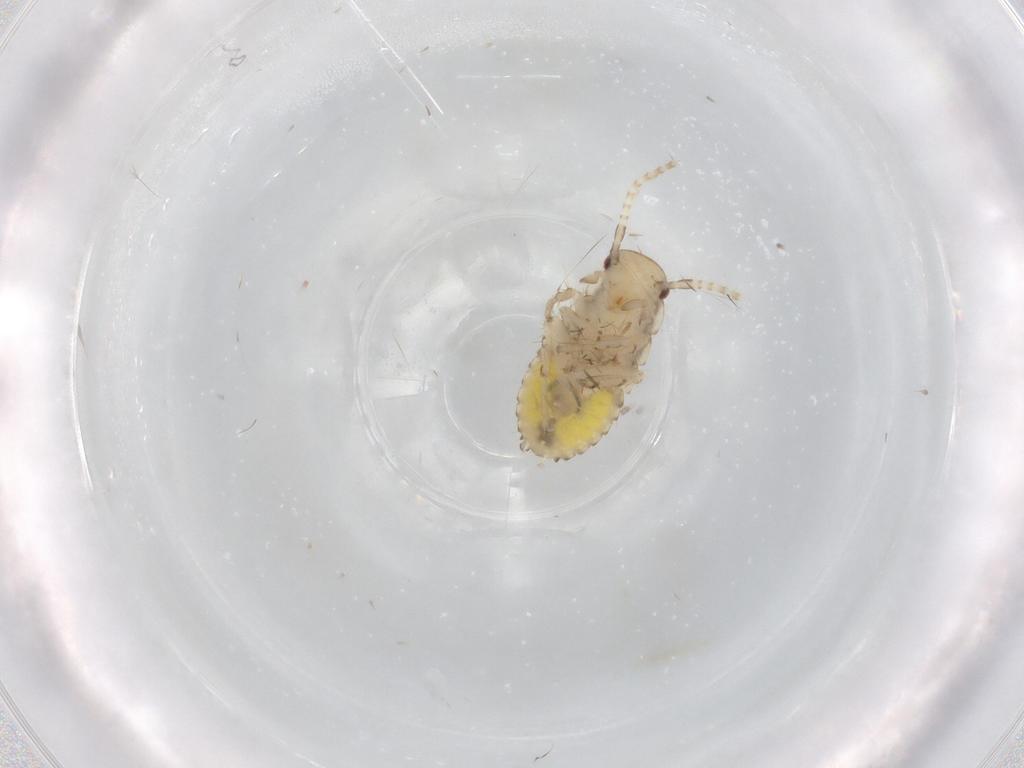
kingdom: Animalia
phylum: Arthropoda
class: Insecta
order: Blattodea
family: Ectobiidae
